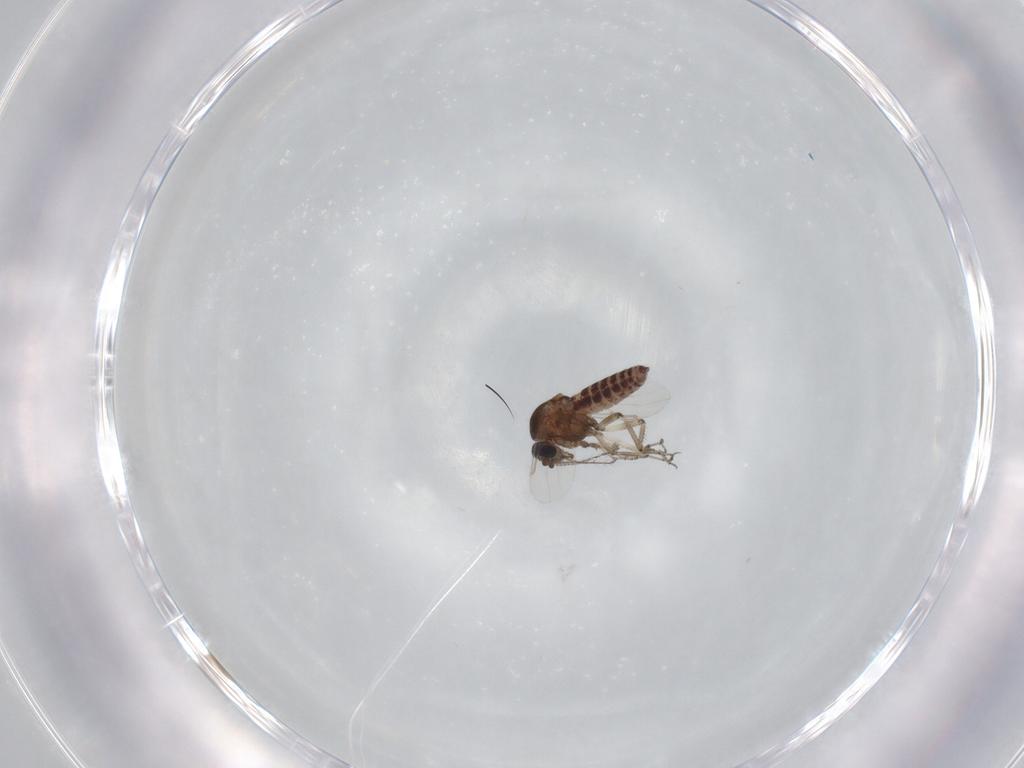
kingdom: Animalia
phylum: Arthropoda
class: Insecta
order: Diptera
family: Ceratopogonidae
